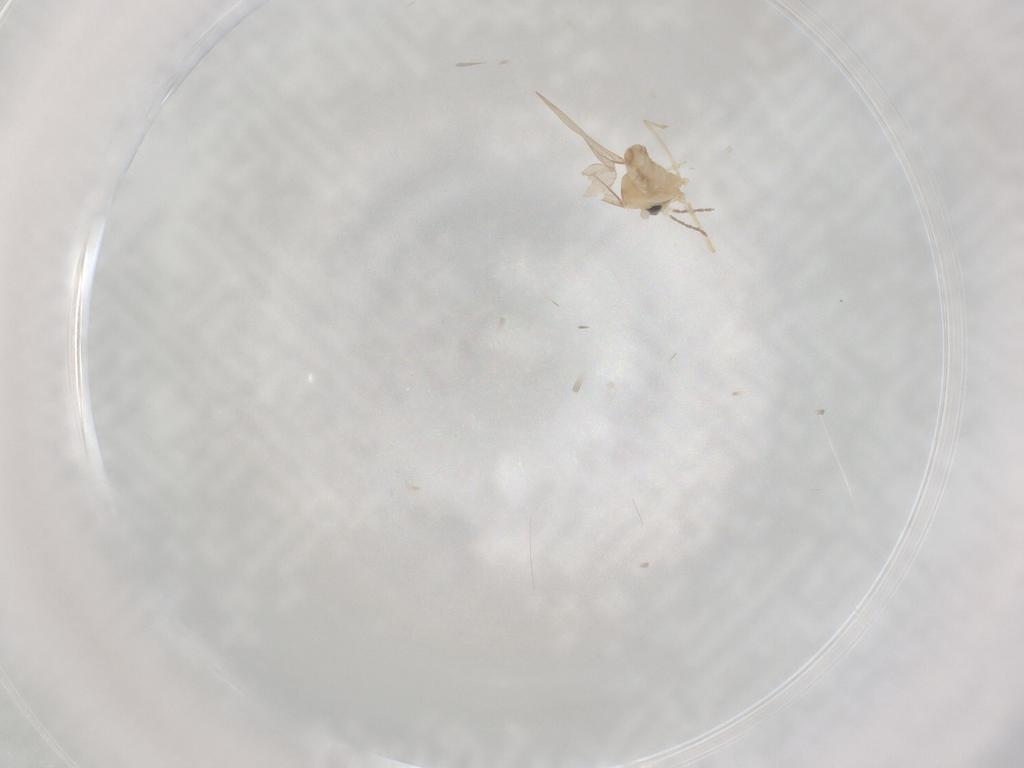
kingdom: Animalia
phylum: Arthropoda
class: Insecta
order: Diptera
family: Cecidomyiidae
